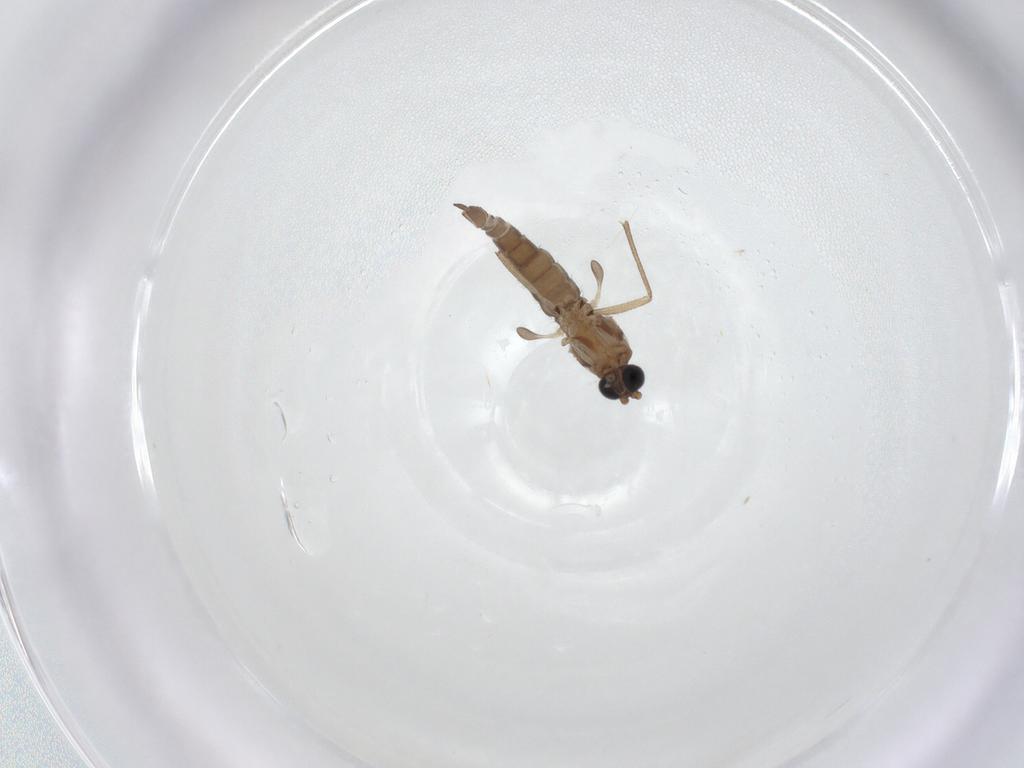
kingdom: Animalia
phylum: Arthropoda
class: Insecta
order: Diptera
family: Sciaridae
